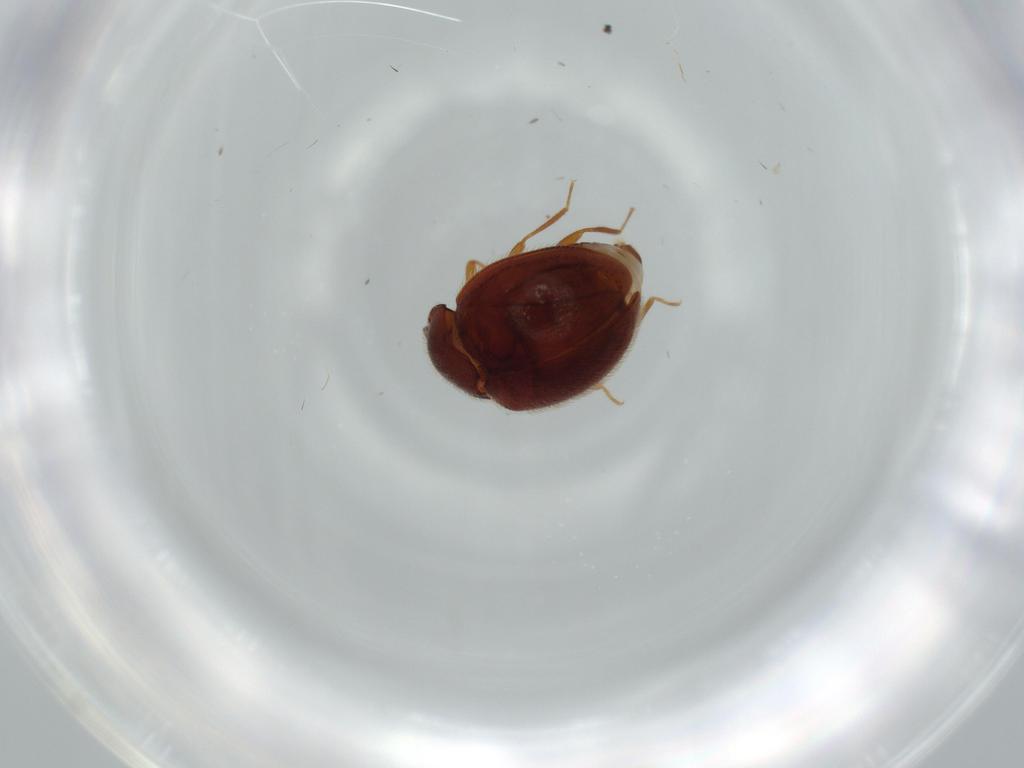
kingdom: Animalia
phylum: Arthropoda
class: Insecta
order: Coleoptera
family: Anamorphidae
